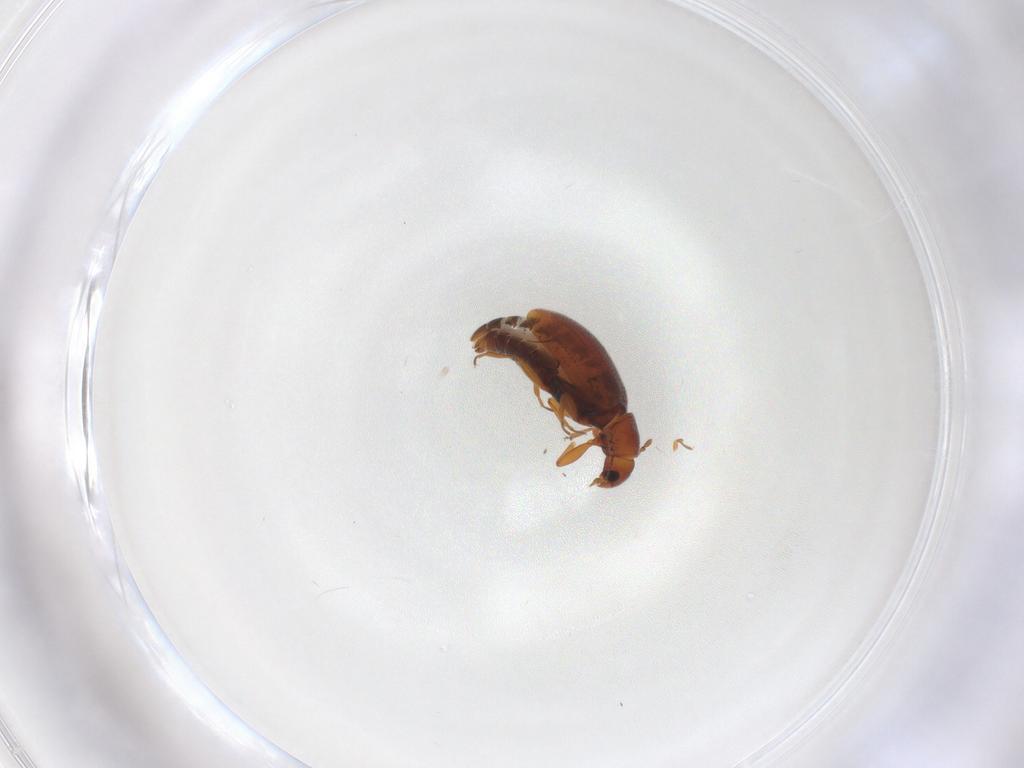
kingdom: Animalia
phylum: Arthropoda
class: Insecta
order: Coleoptera
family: Latridiidae
